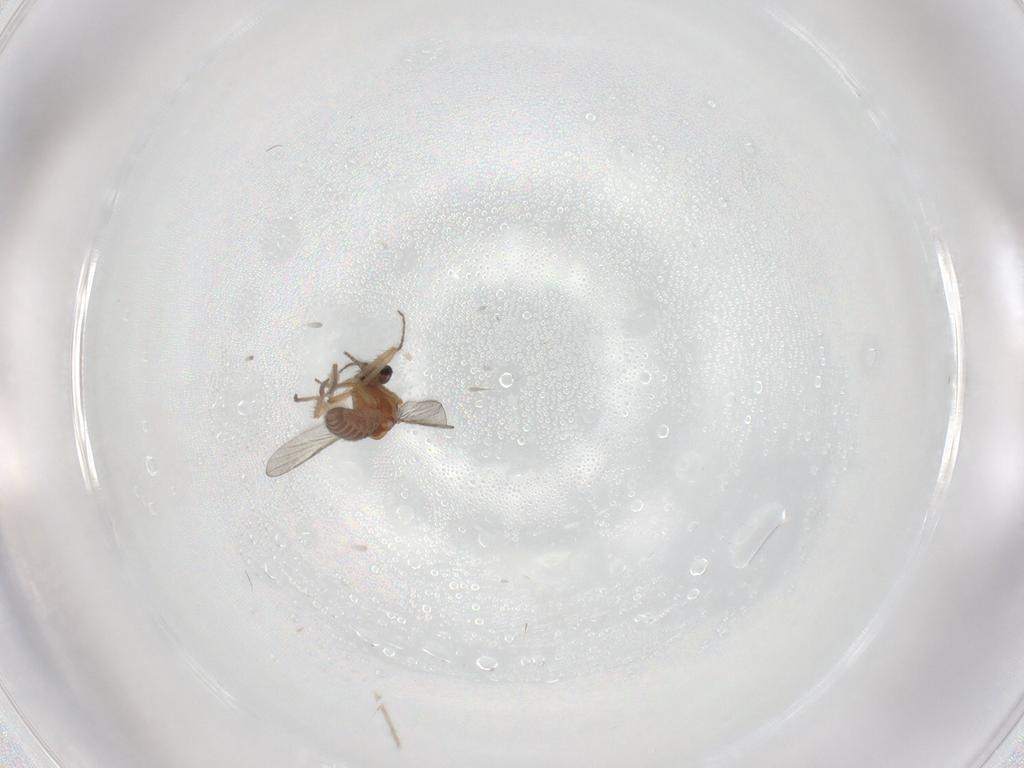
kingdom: Animalia
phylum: Arthropoda
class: Insecta
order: Diptera
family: Ceratopogonidae
